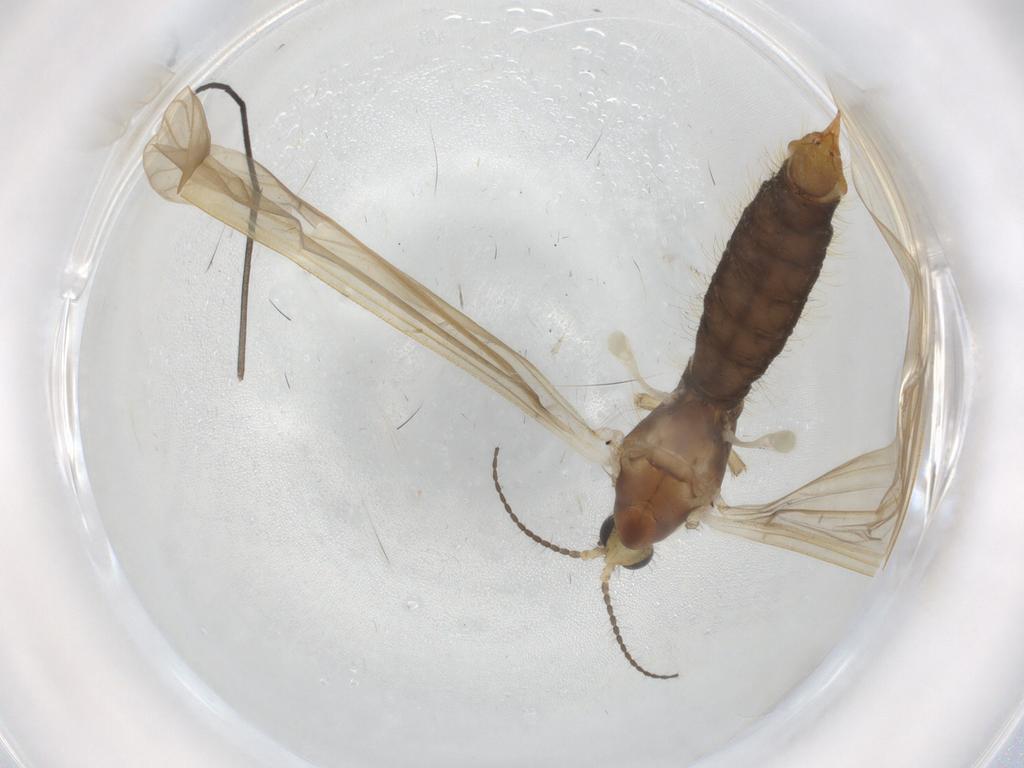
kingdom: Animalia
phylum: Arthropoda
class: Insecta
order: Diptera
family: Limoniidae
